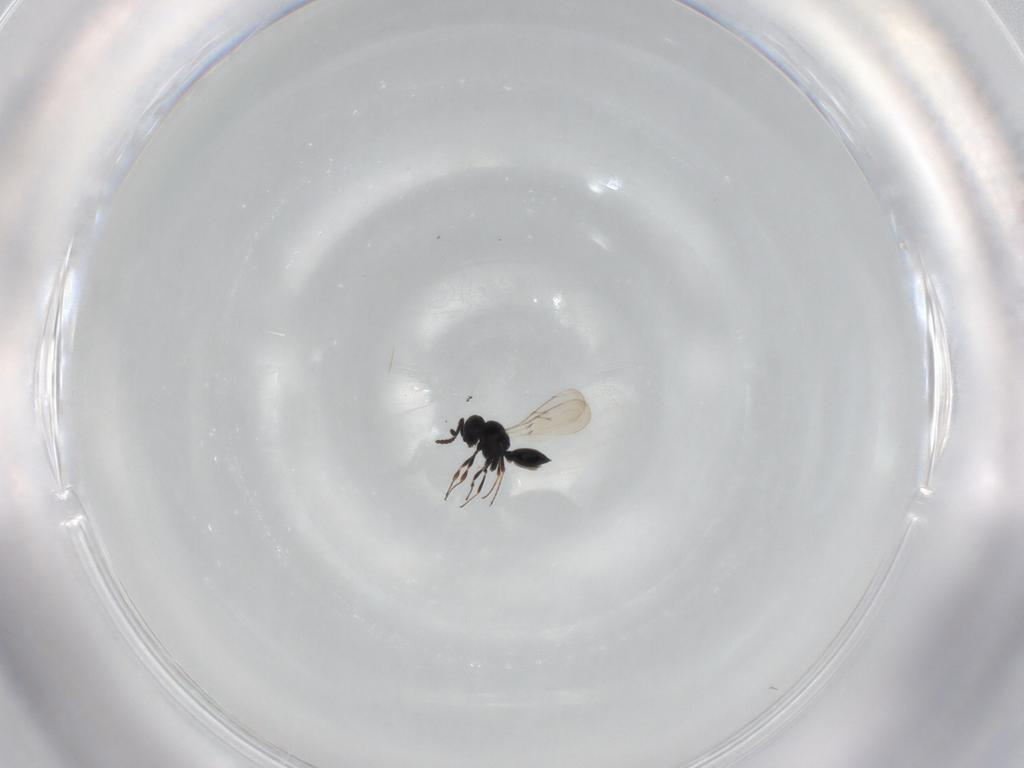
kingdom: Animalia
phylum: Arthropoda
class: Insecta
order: Hymenoptera
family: Scelionidae
